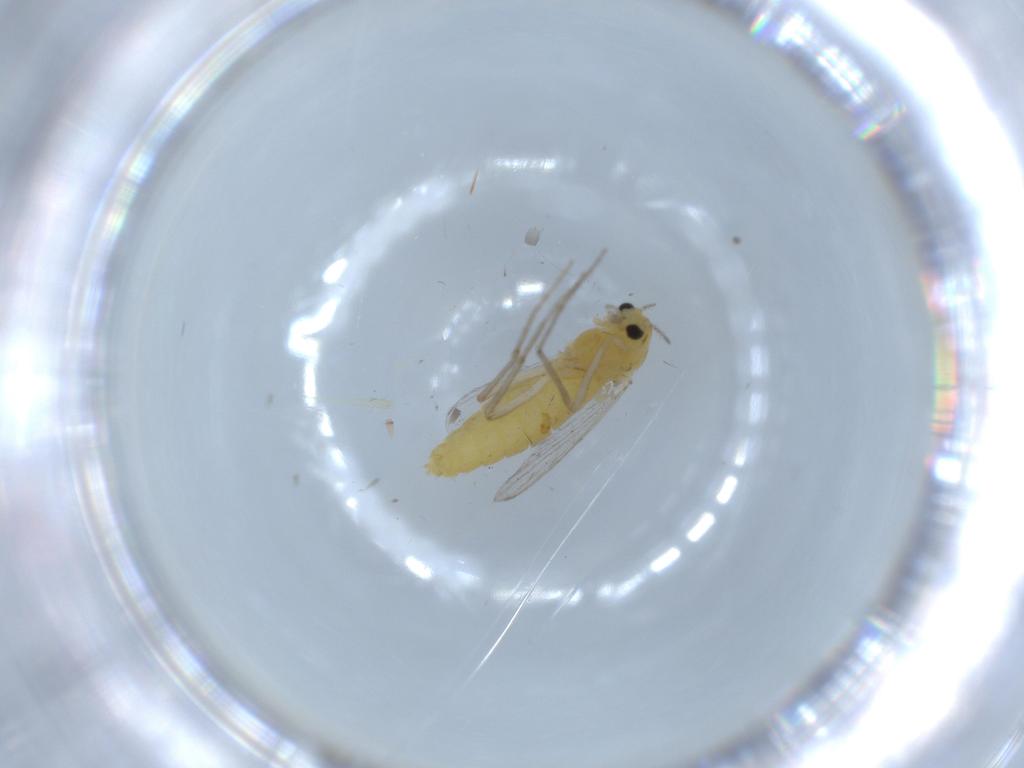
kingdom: Animalia
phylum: Arthropoda
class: Insecta
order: Diptera
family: Chironomidae
